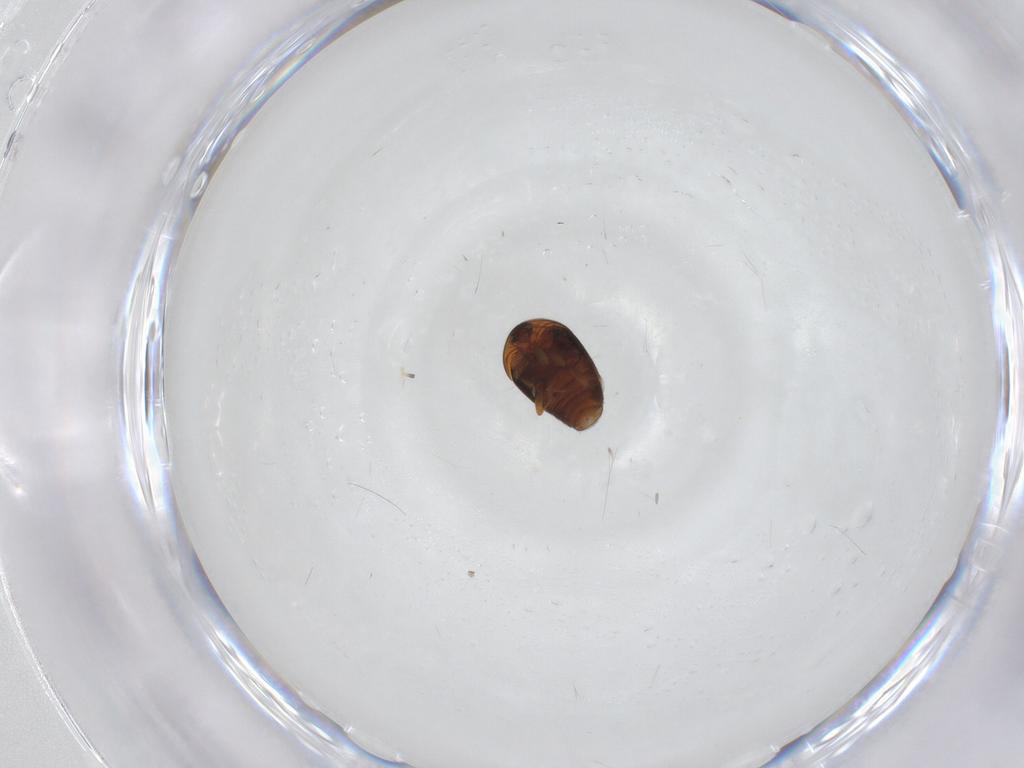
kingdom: Animalia
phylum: Arthropoda
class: Insecta
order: Coleoptera
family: Corylophidae
